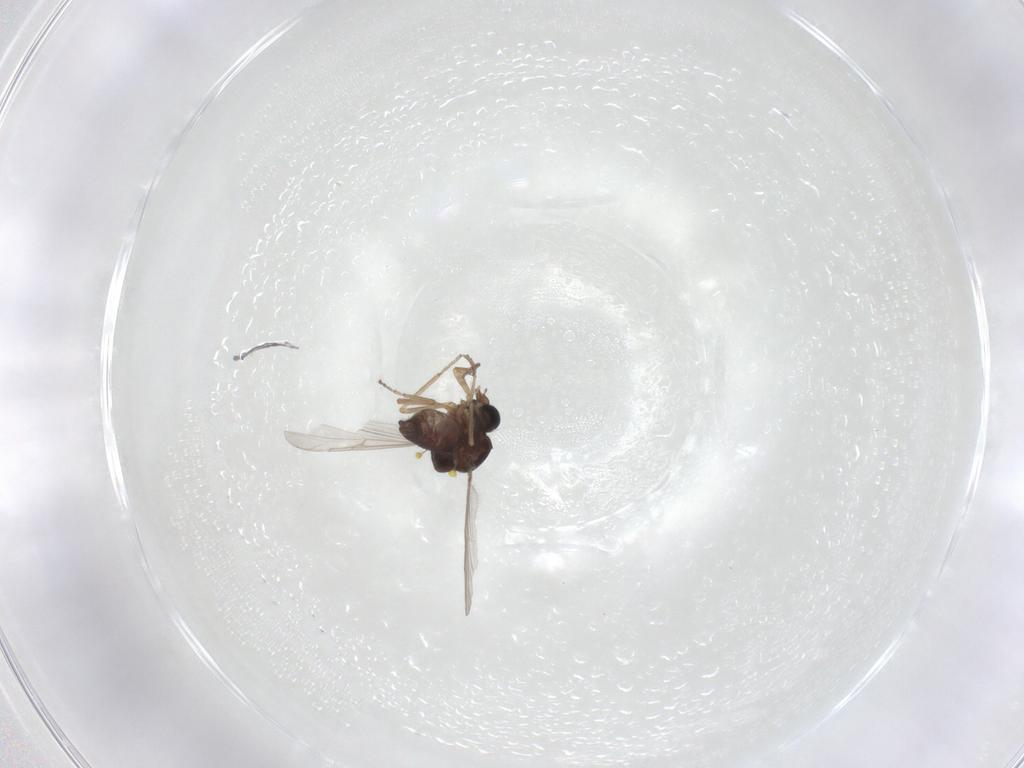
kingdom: Animalia
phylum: Arthropoda
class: Insecta
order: Diptera
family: Ceratopogonidae
